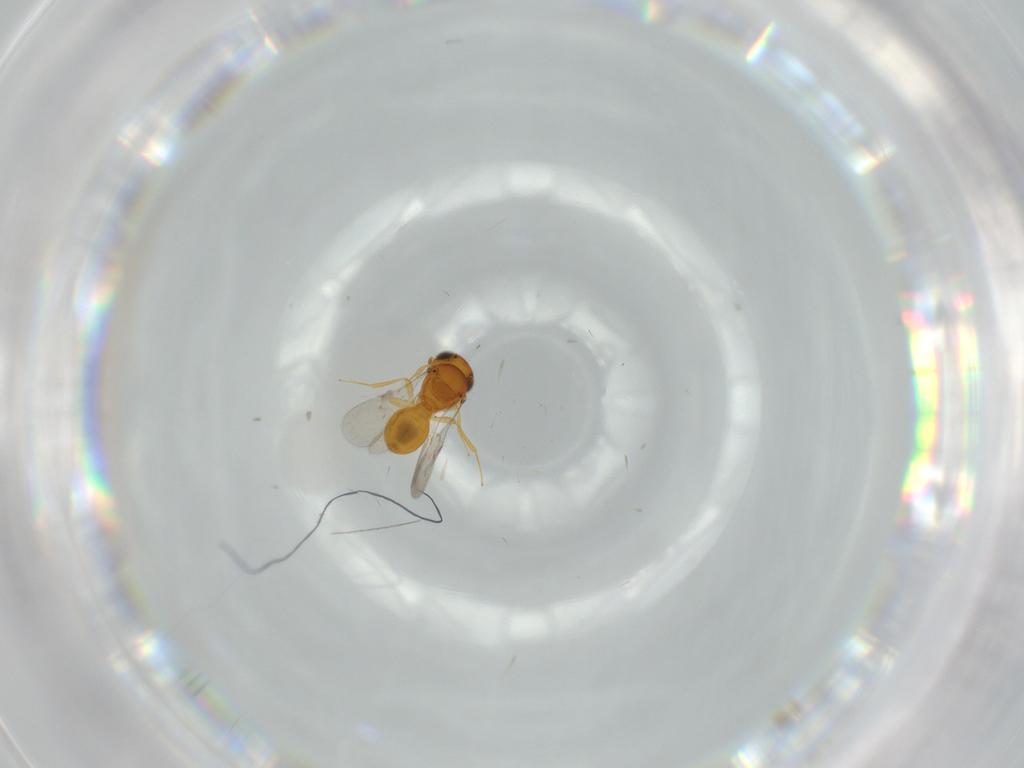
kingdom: Animalia
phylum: Arthropoda
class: Insecta
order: Hymenoptera
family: Scelionidae
